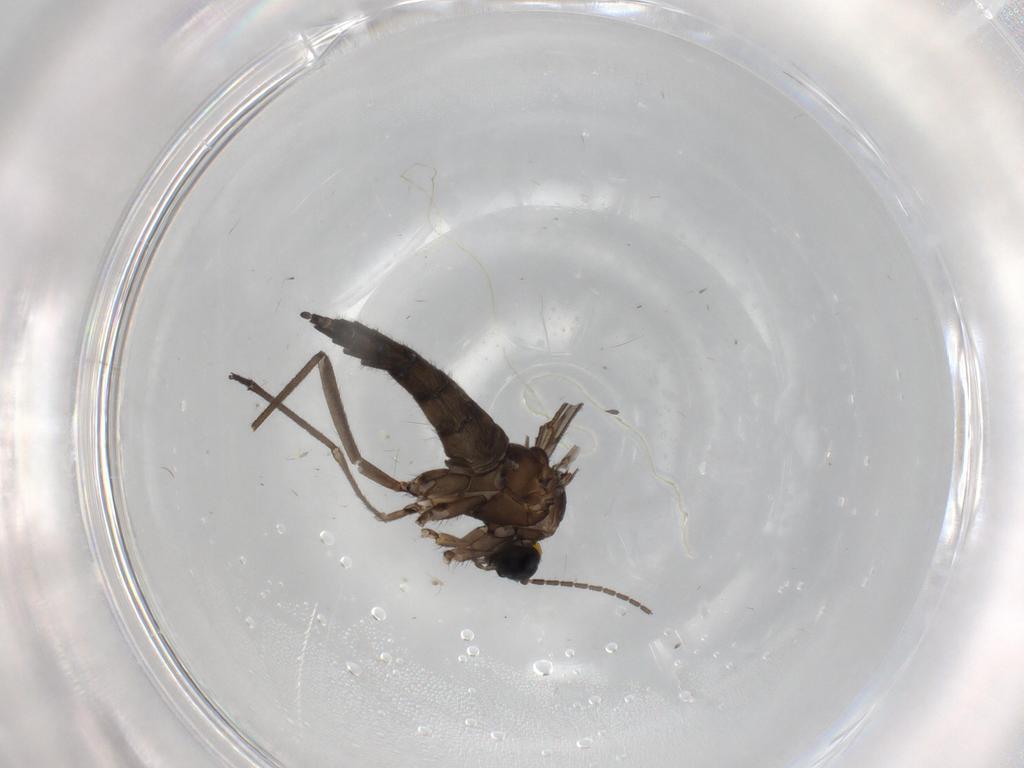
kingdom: Animalia
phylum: Arthropoda
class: Insecta
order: Diptera
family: Sciaridae
